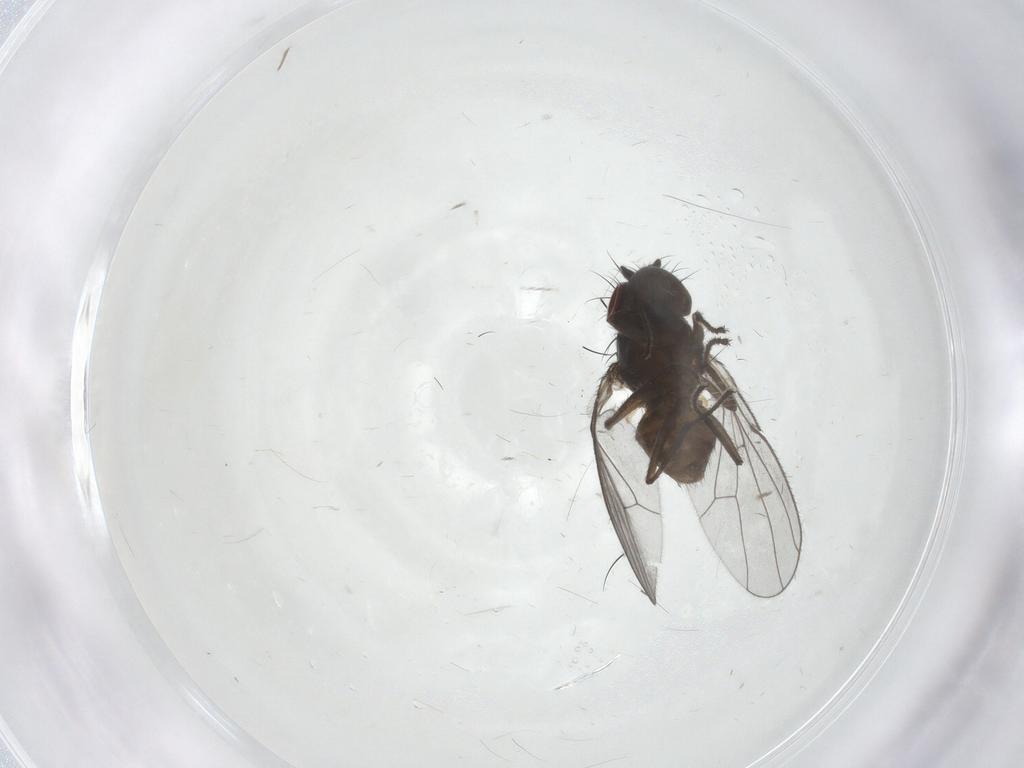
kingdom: Animalia
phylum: Arthropoda
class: Insecta
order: Diptera
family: Ephydridae
